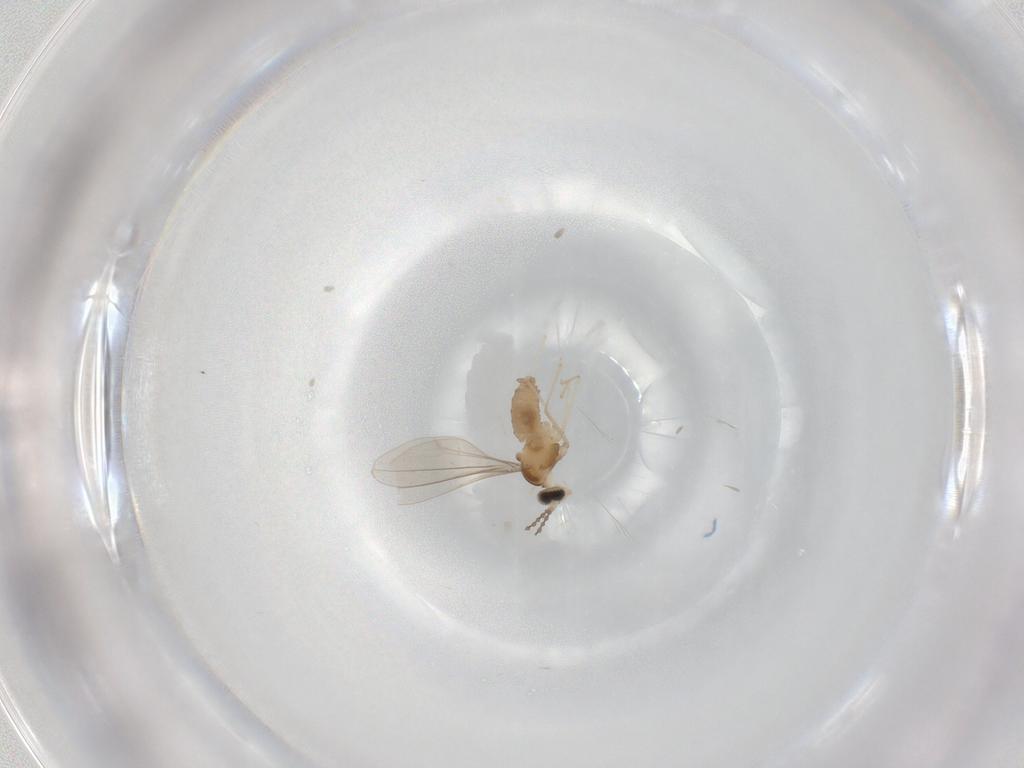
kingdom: Animalia
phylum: Arthropoda
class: Insecta
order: Diptera
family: Cecidomyiidae
